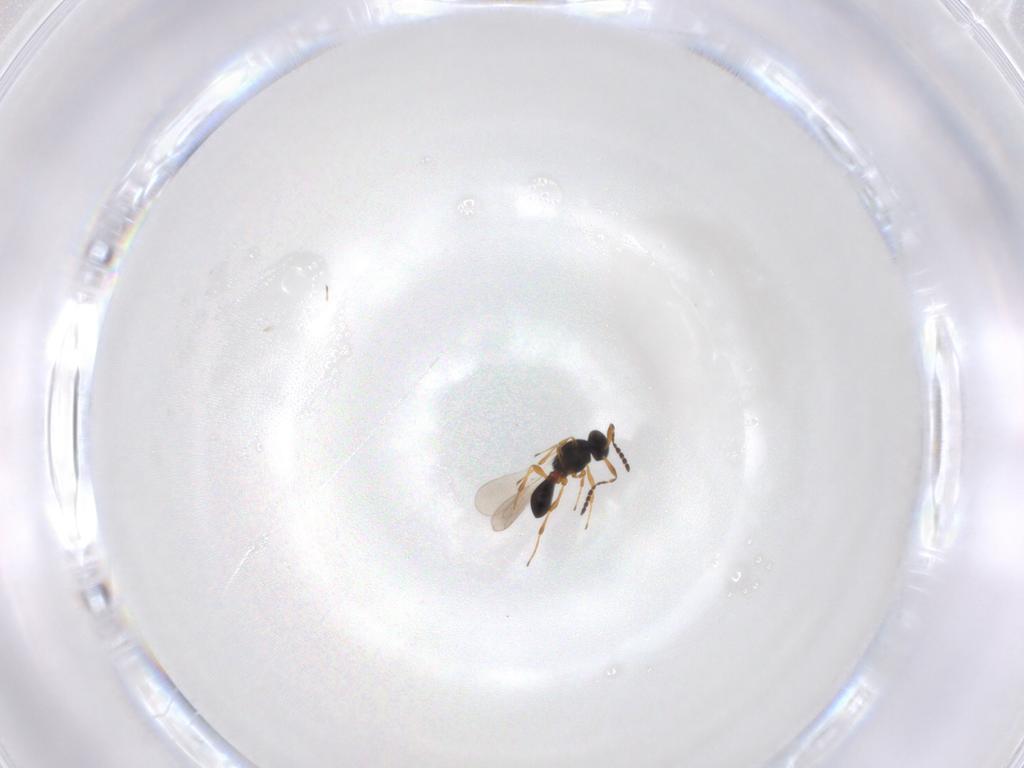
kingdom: Animalia
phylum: Arthropoda
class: Insecta
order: Hymenoptera
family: Platygastridae
